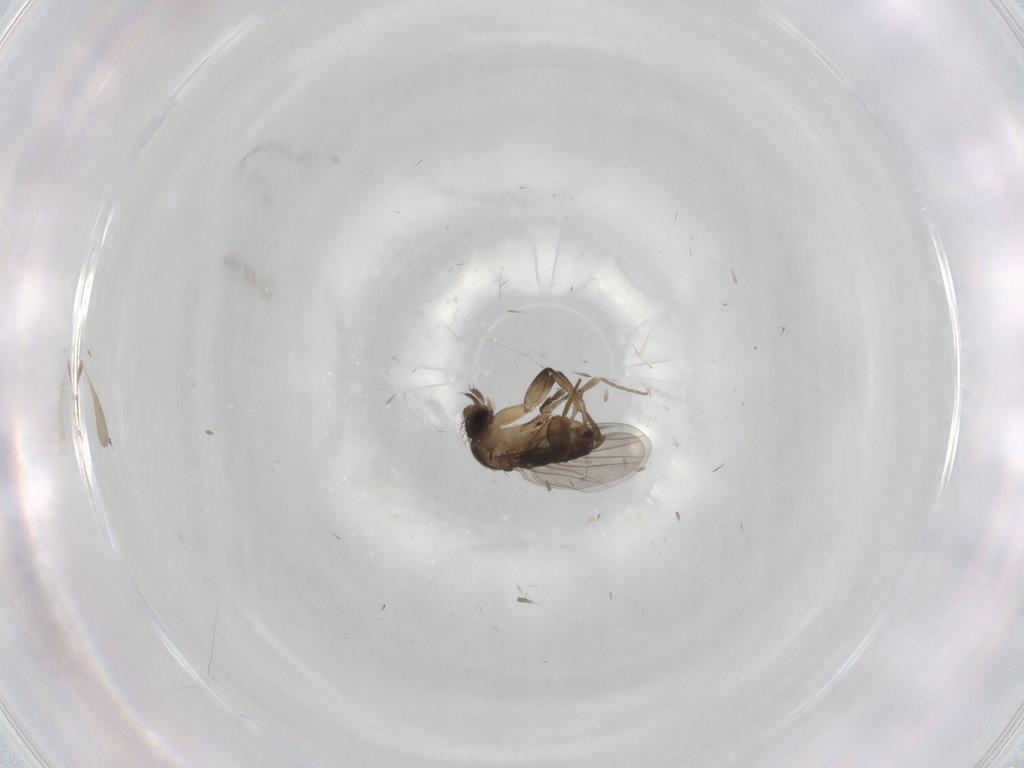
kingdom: Animalia
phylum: Arthropoda
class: Insecta
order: Diptera
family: Phoridae
